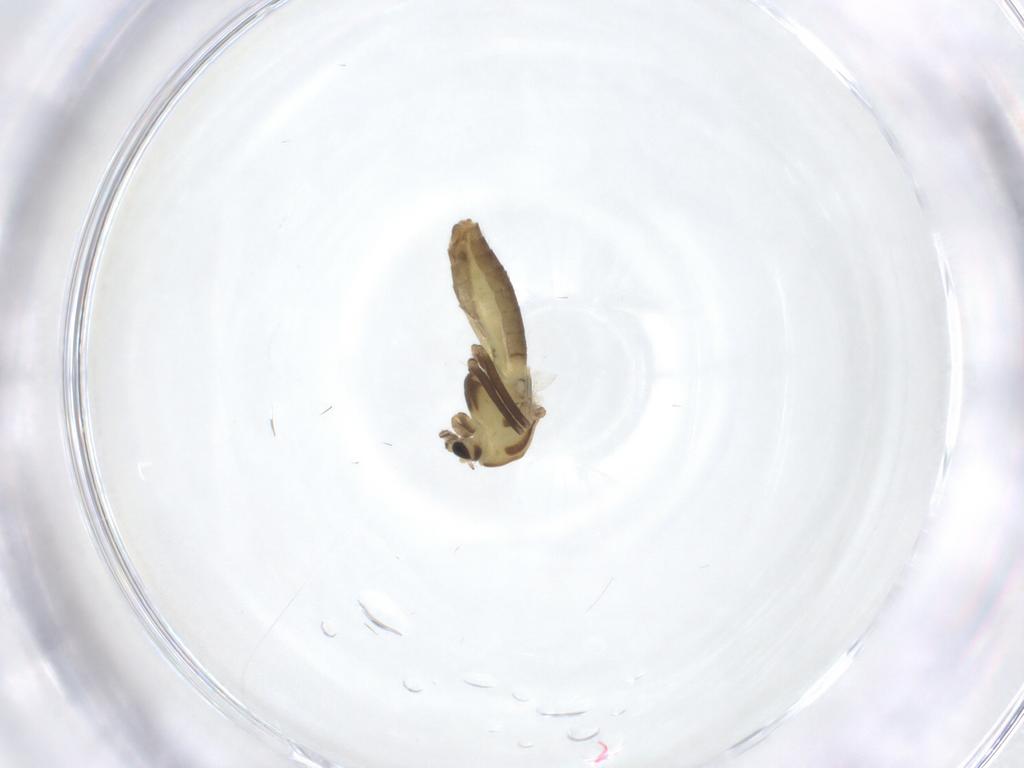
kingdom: Animalia
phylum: Arthropoda
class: Insecta
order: Diptera
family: Chironomidae
